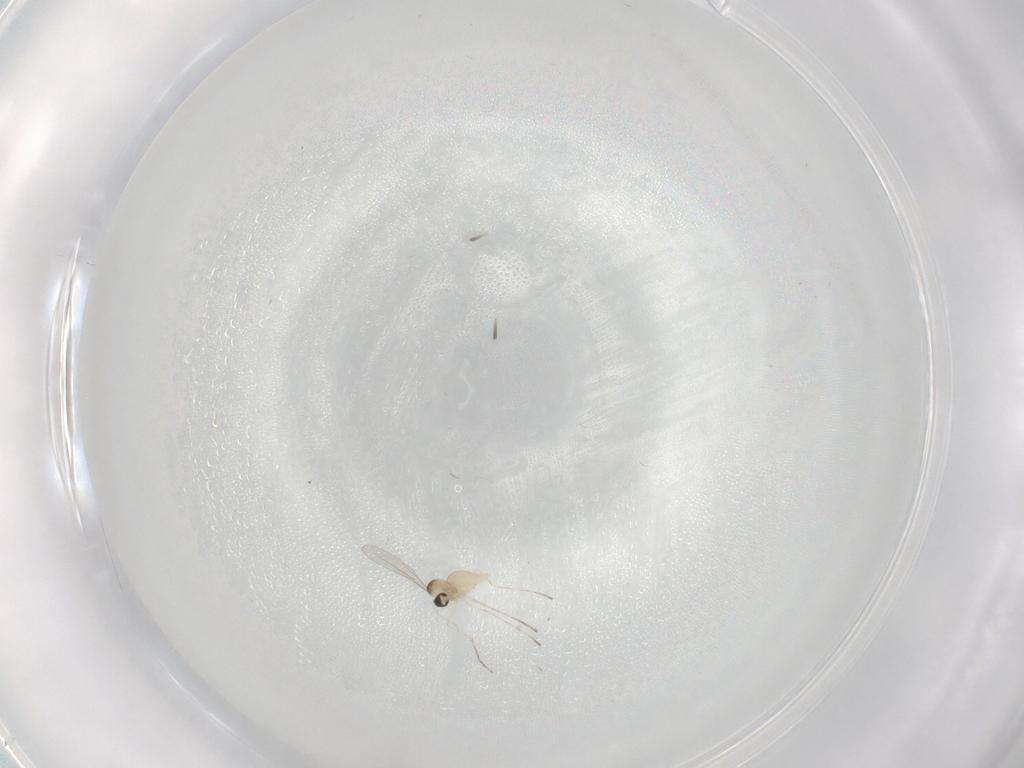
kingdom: Animalia
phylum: Arthropoda
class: Insecta
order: Diptera
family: Cecidomyiidae
